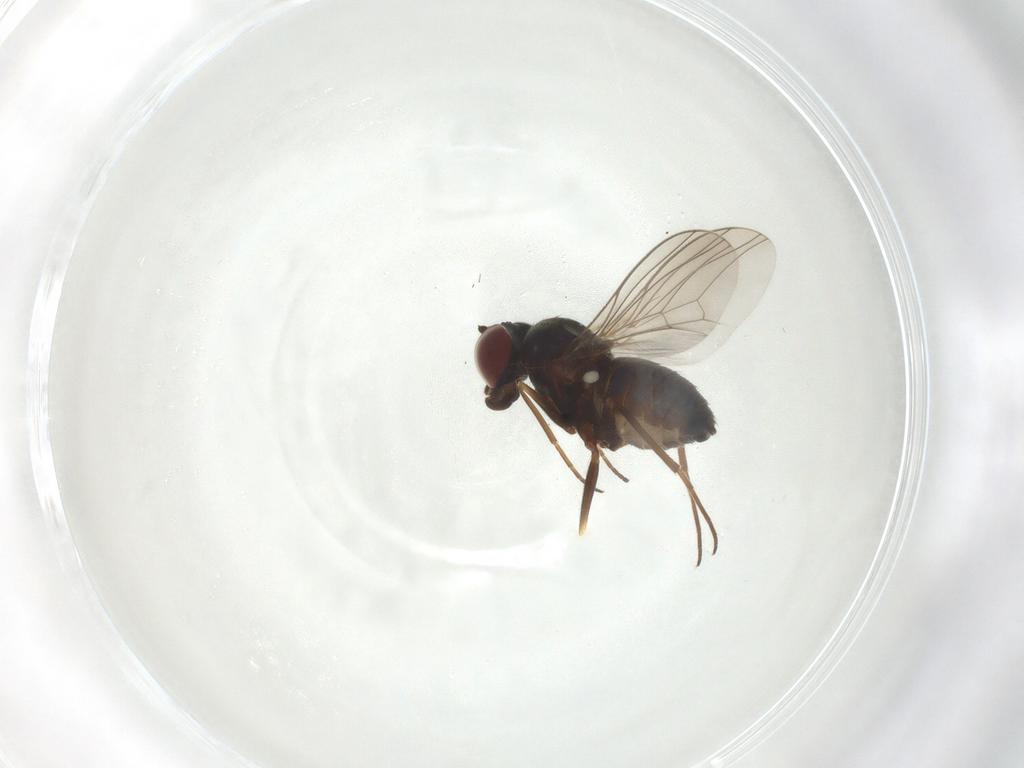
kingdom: Animalia
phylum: Arthropoda
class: Insecta
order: Diptera
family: Dolichopodidae
